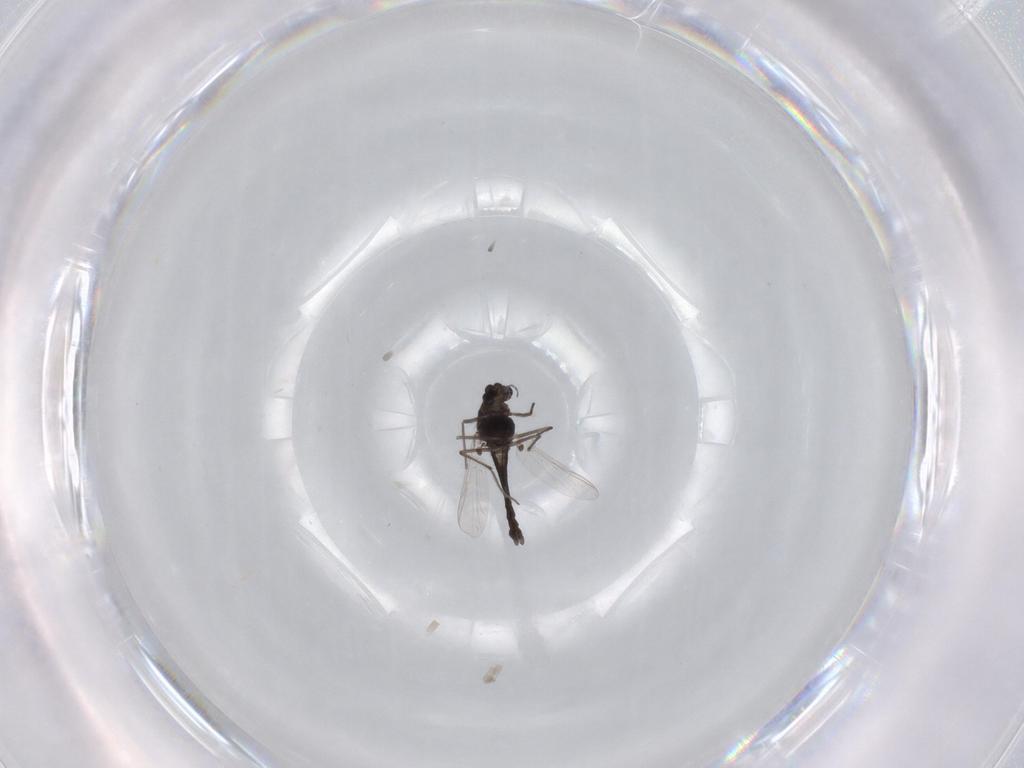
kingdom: Animalia
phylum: Arthropoda
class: Insecta
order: Diptera
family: Chironomidae
